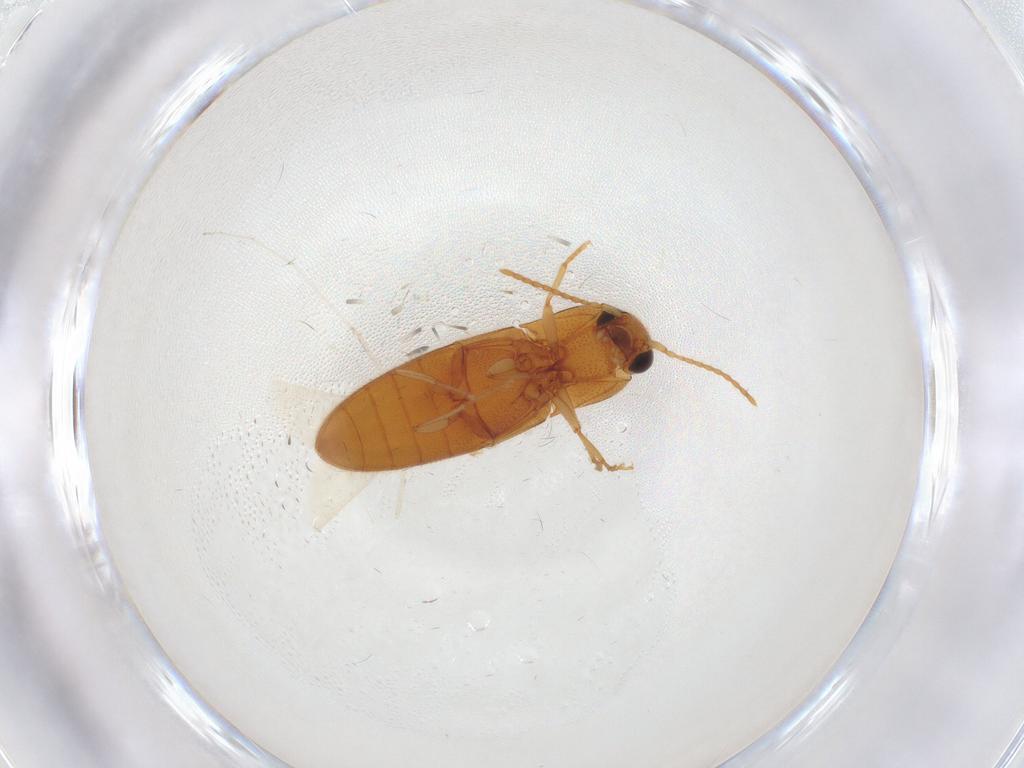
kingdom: Animalia
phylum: Arthropoda
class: Insecta
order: Coleoptera
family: Elateridae
